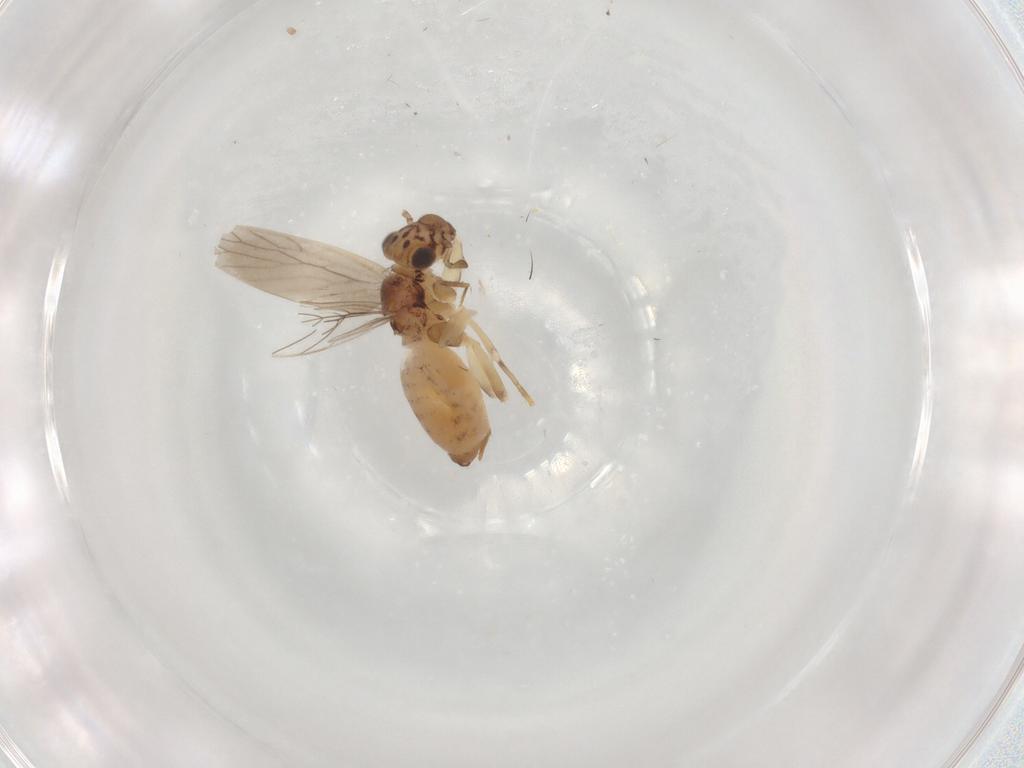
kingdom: Animalia
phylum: Arthropoda
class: Insecta
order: Psocodea
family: Lepidopsocidae
